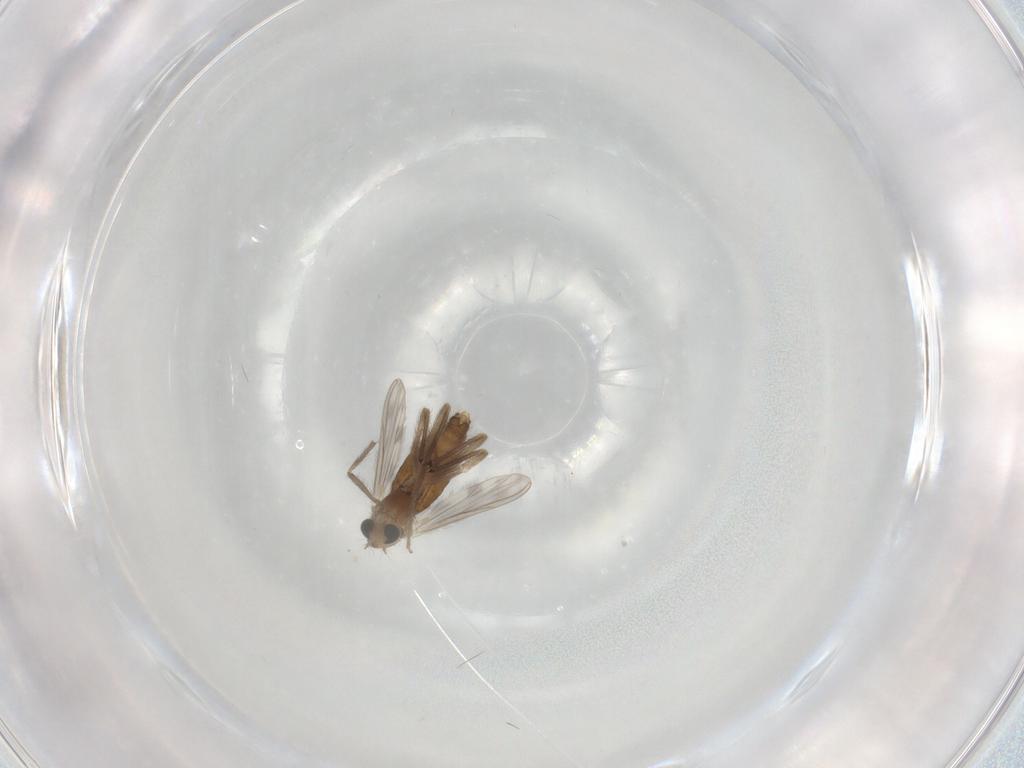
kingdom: Animalia
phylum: Arthropoda
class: Insecta
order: Diptera
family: Chironomidae
